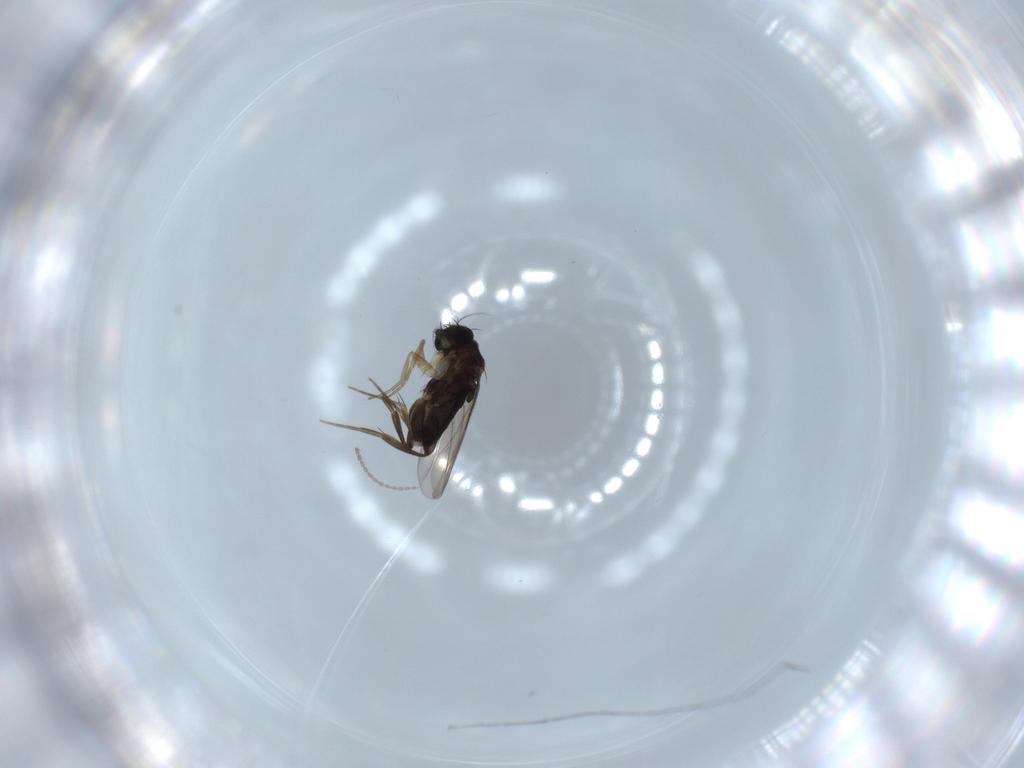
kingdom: Animalia
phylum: Arthropoda
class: Insecta
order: Diptera
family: Cecidomyiidae
